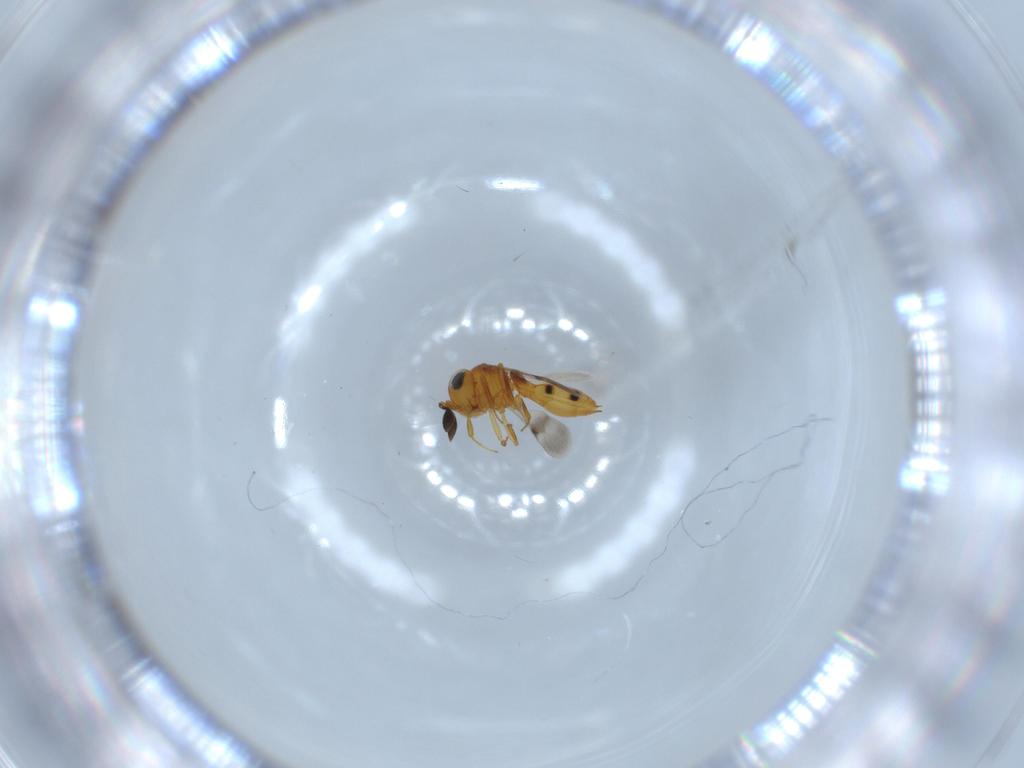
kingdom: Animalia
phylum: Arthropoda
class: Insecta
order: Hymenoptera
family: Scelionidae
